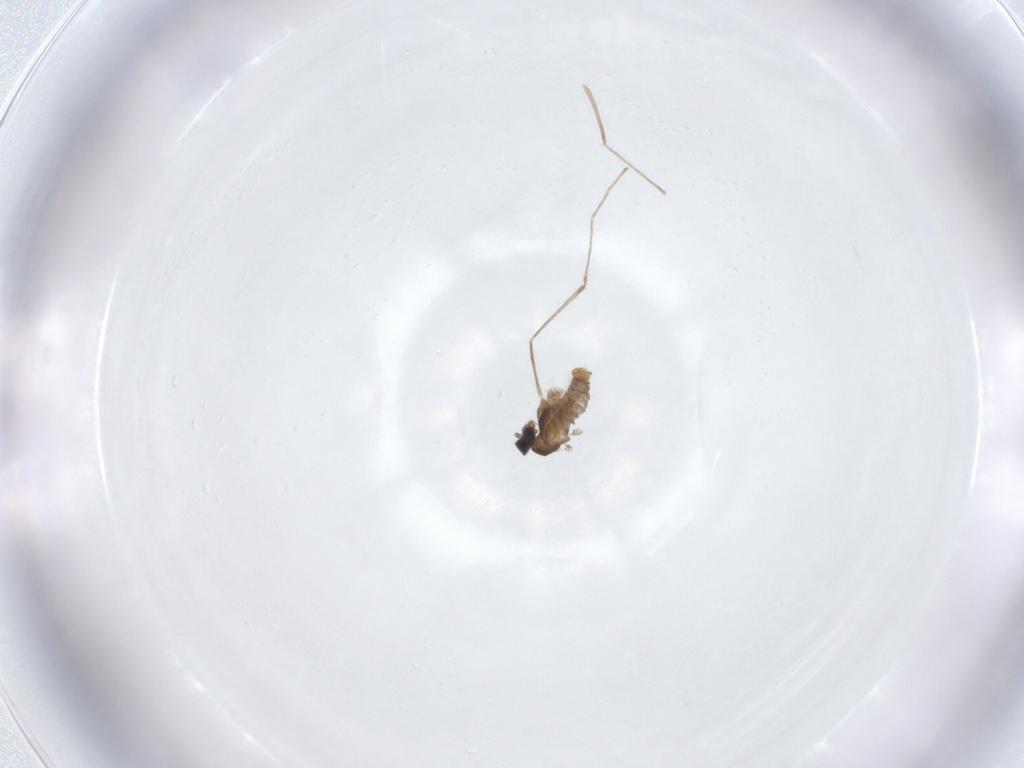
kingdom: Animalia
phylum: Arthropoda
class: Insecta
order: Diptera
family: Cecidomyiidae
